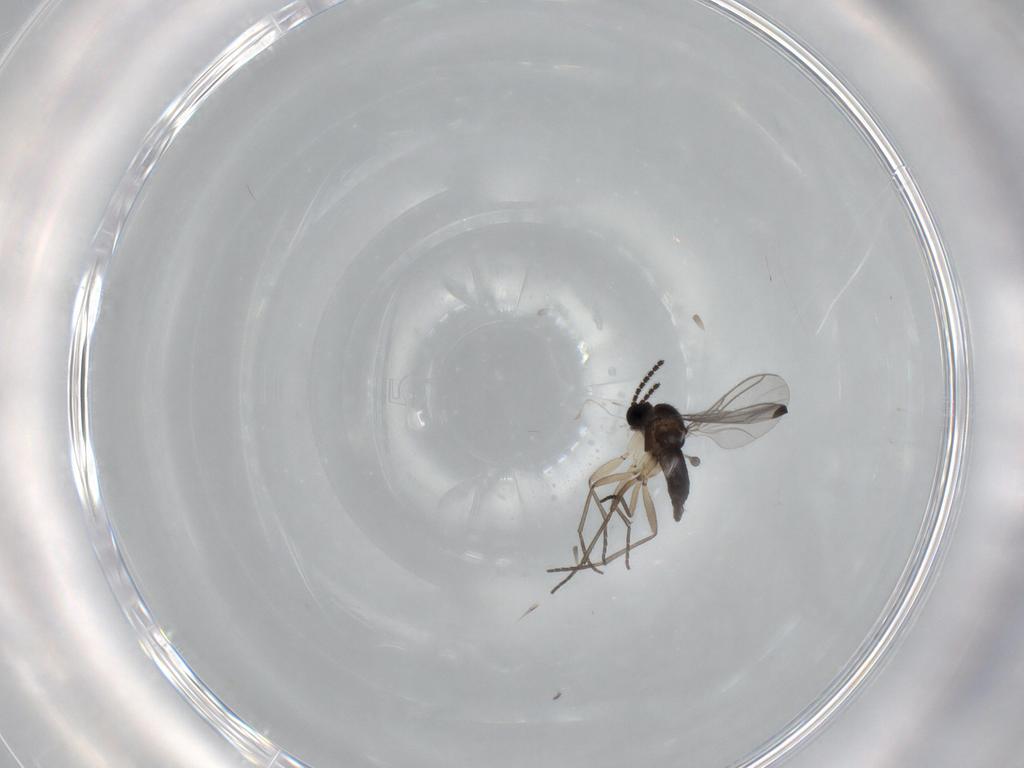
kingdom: Animalia
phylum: Arthropoda
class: Insecta
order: Diptera
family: Sciaridae
